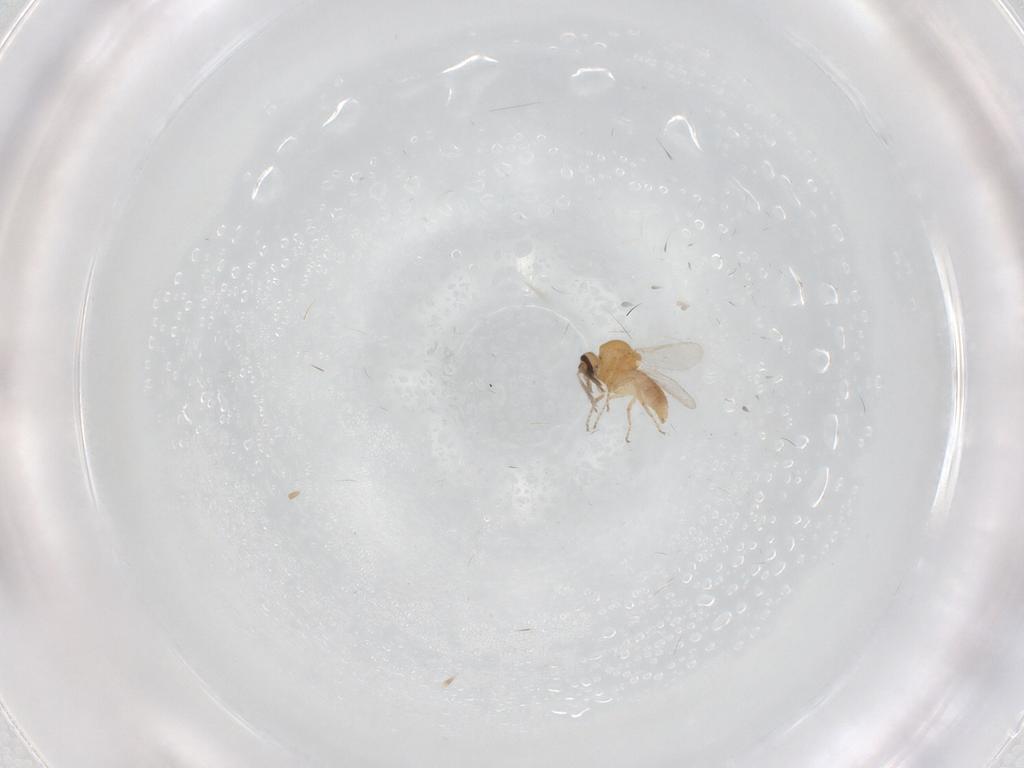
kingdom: Animalia
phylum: Arthropoda
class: Insecta
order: Diptera
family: Ceratopogonidae
